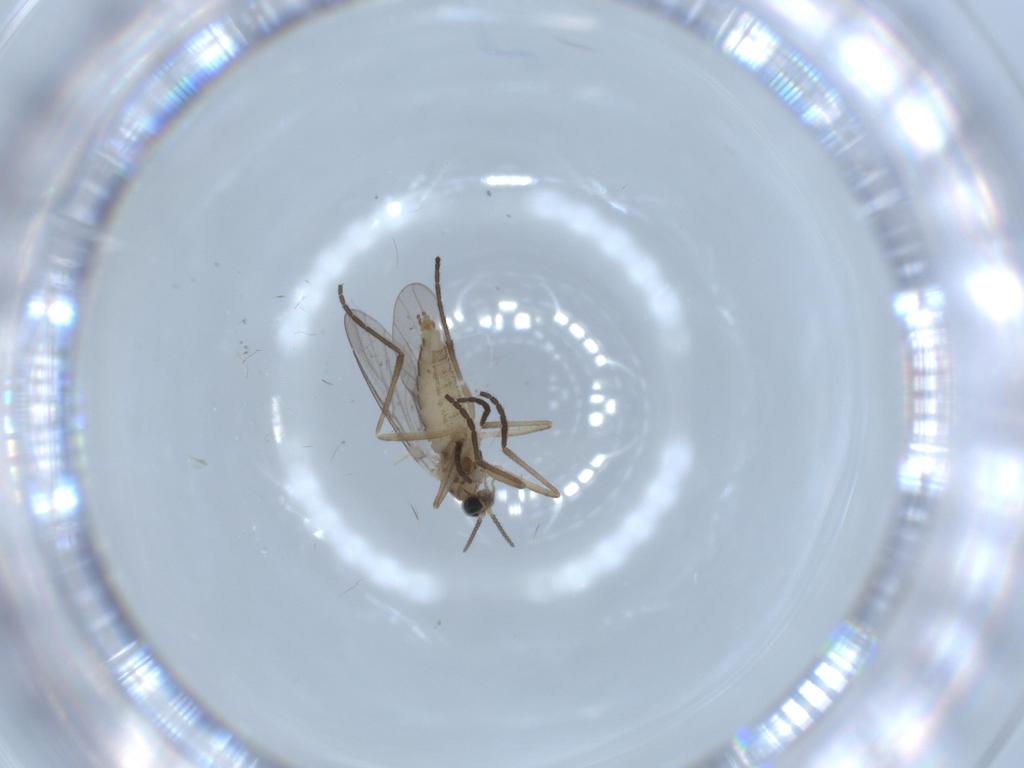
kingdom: Animalia
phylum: Arthropoda
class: Insecta
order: Diptera
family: Cecidomyiidae
